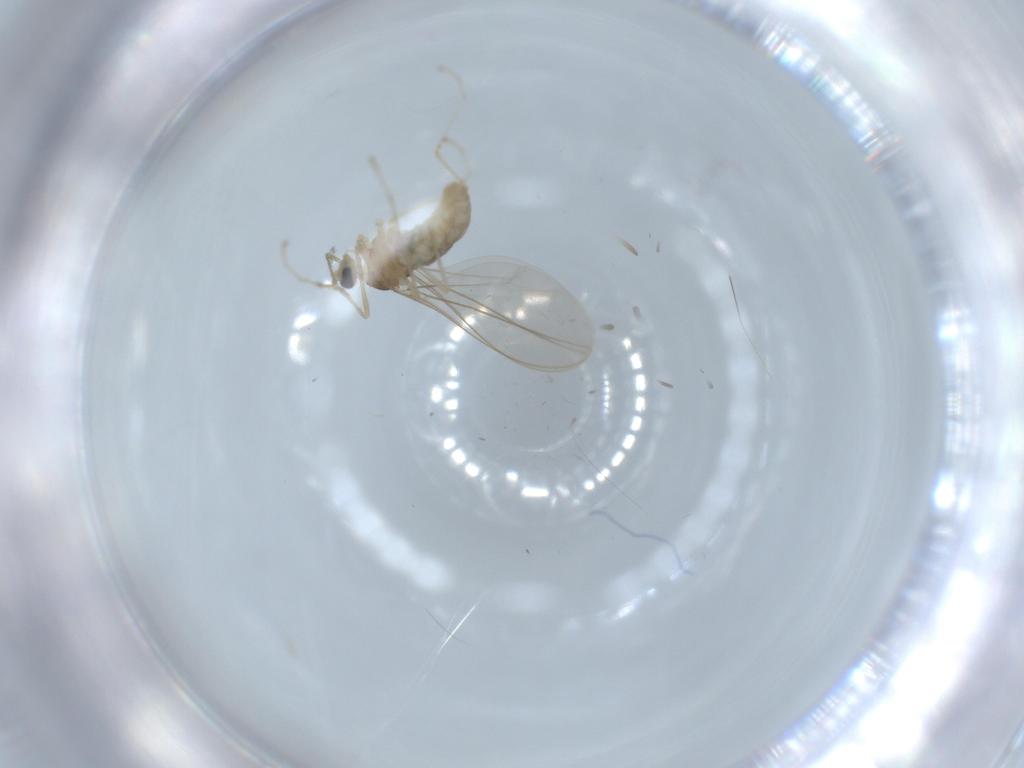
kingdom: Animalia
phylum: Arthropoda
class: Insecta
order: Diptera
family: Cecidomyiidae
